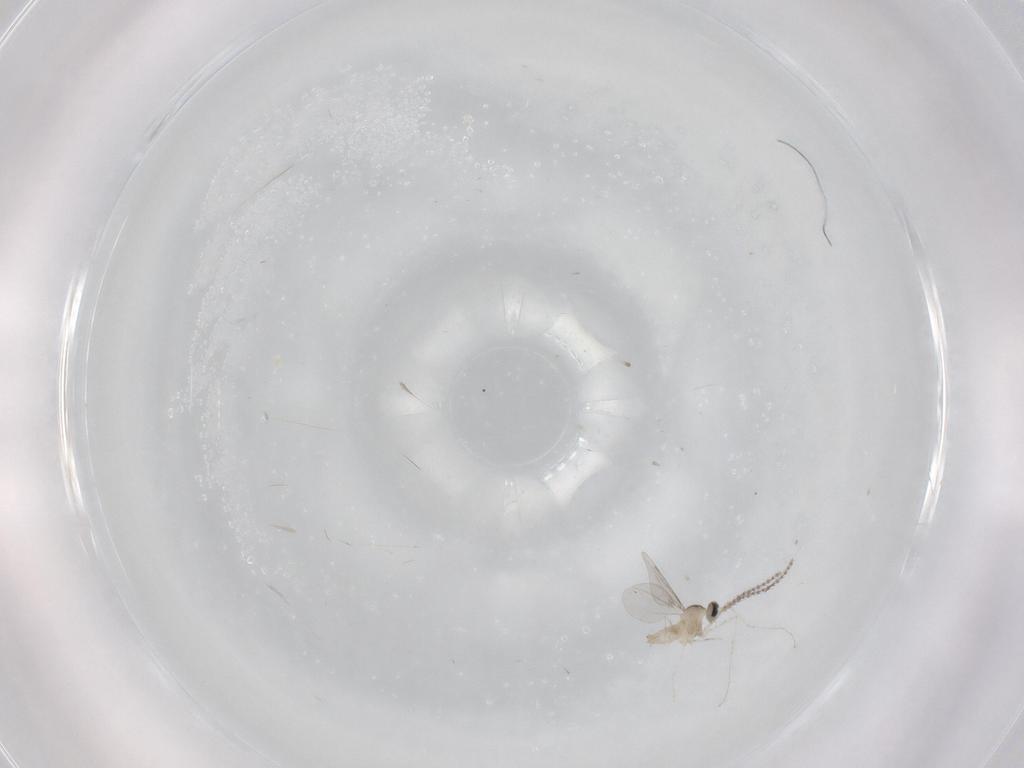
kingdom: Animalia
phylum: Arthropoda
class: Insecta
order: Diptera
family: Cecidomyiidae
